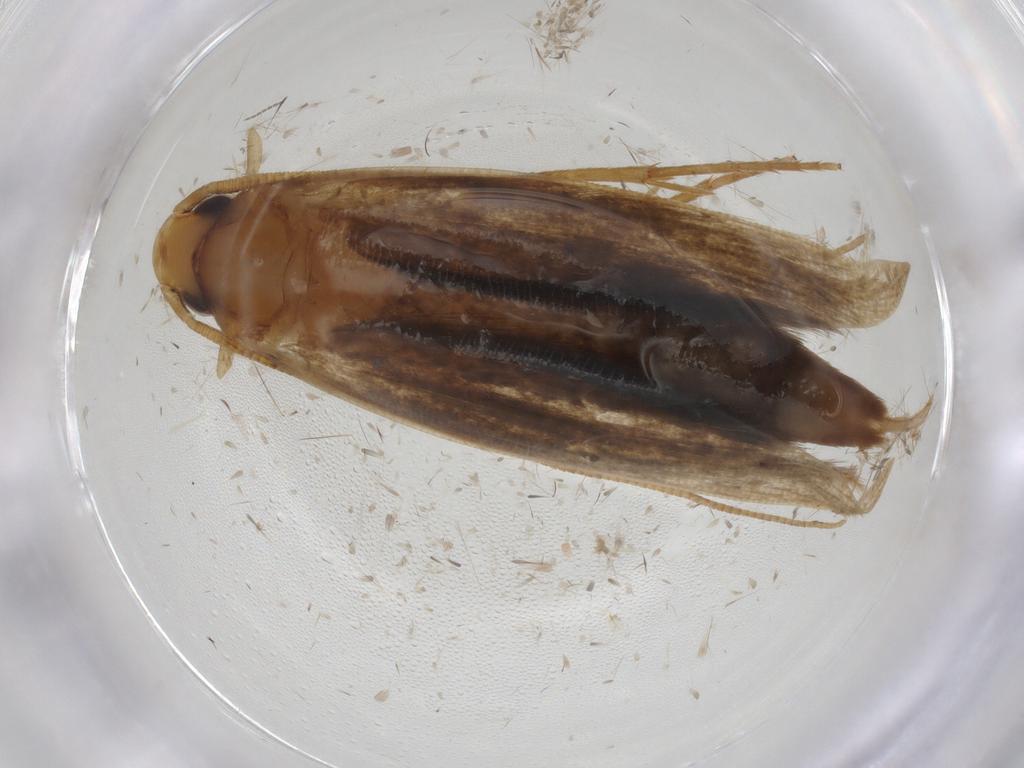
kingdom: Animalia
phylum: Arthropoda
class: Insecta
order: Lepidoptera
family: Tineidae
